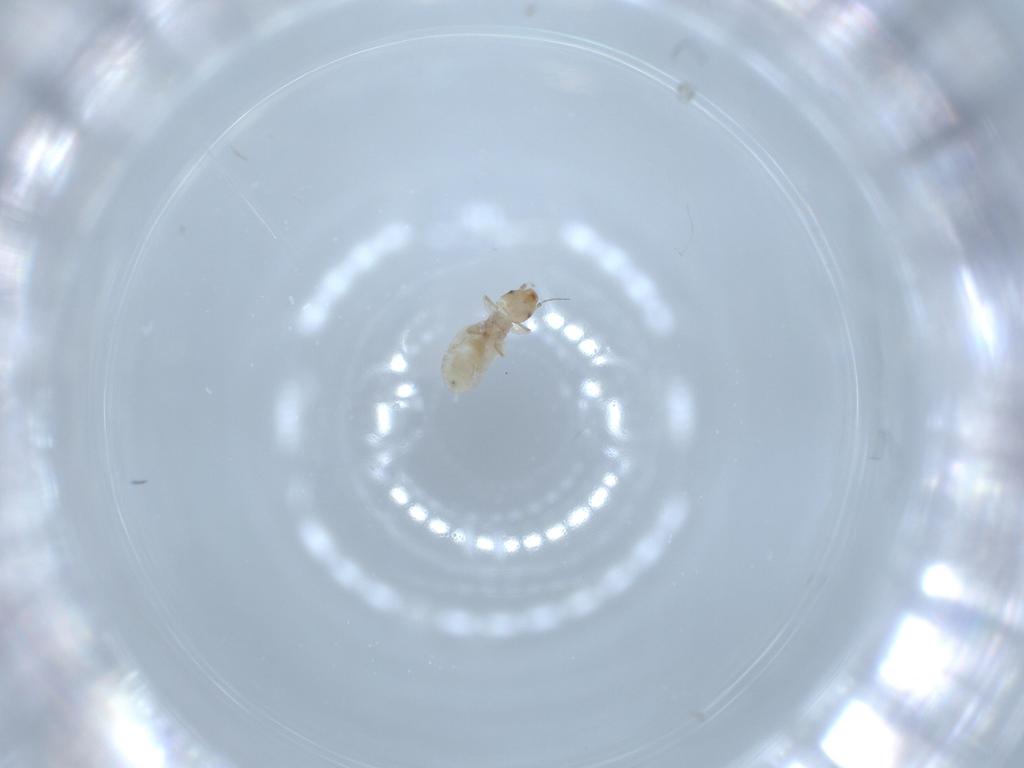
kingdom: Animalia
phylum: Arthropoda
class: Insecta
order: Psocodea
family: Liposcelididae
